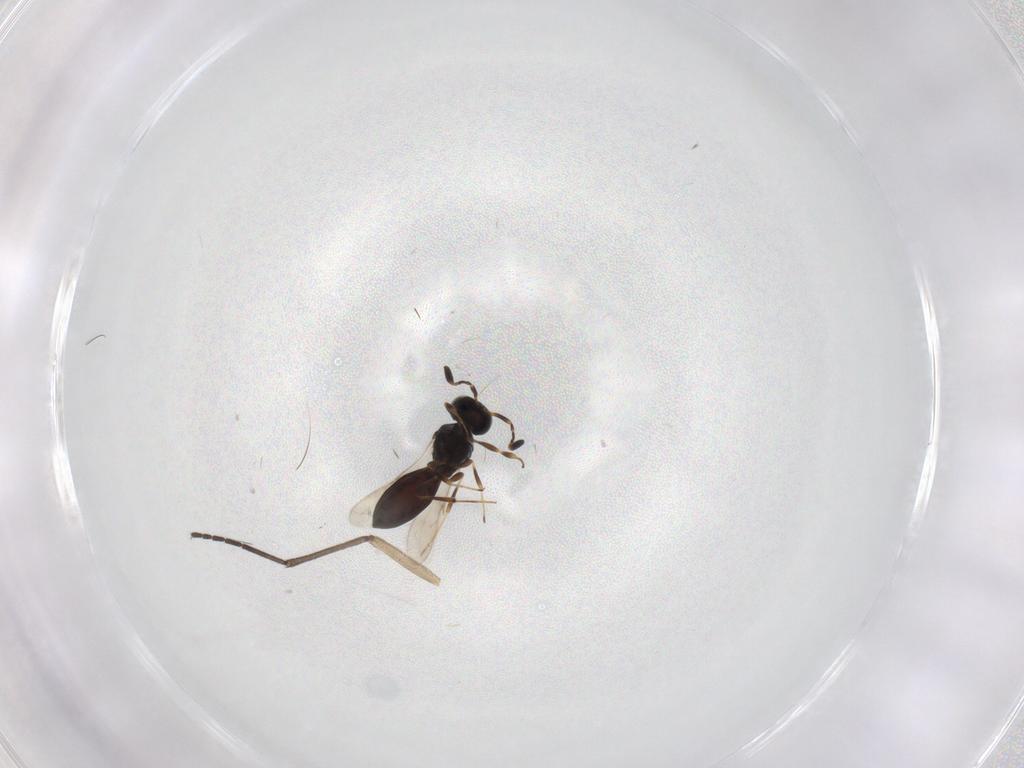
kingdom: Animalia
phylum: Arthropoda
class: Insecta
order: Hymenoptera
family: Scelionidae
